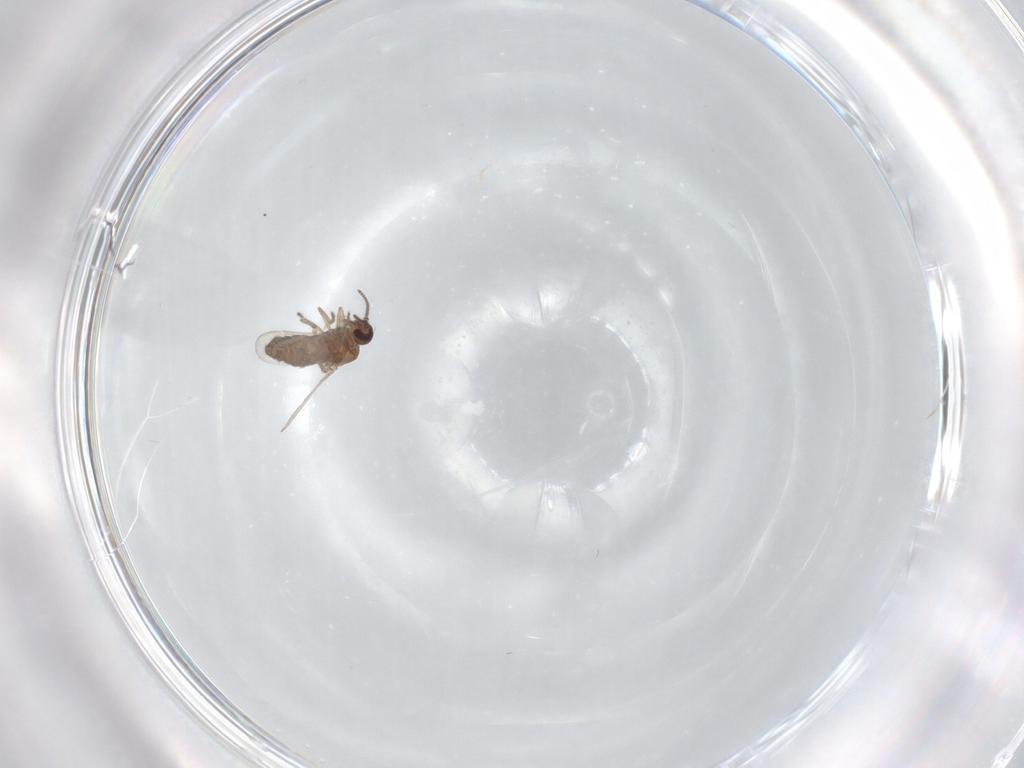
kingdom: Animalia
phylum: Arthropoda
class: Insecta
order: Diptera
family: Ceratopogonidae
